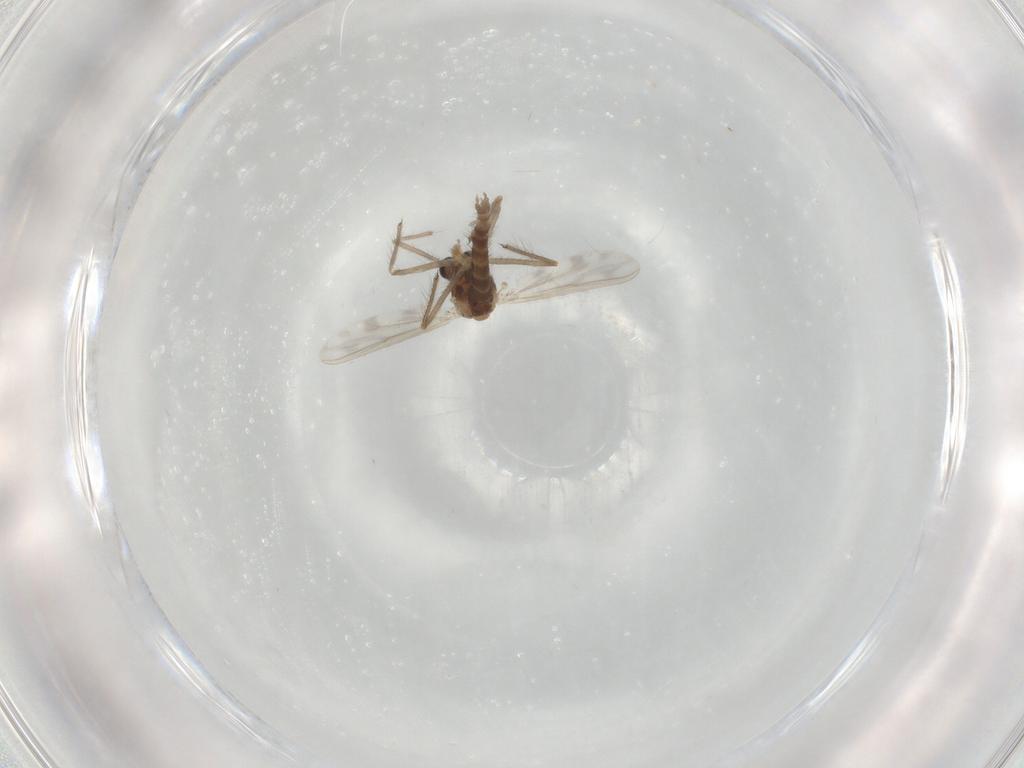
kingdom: Animalia
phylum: Arthropoda
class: Insecta
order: Diptera
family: Chironomidae
